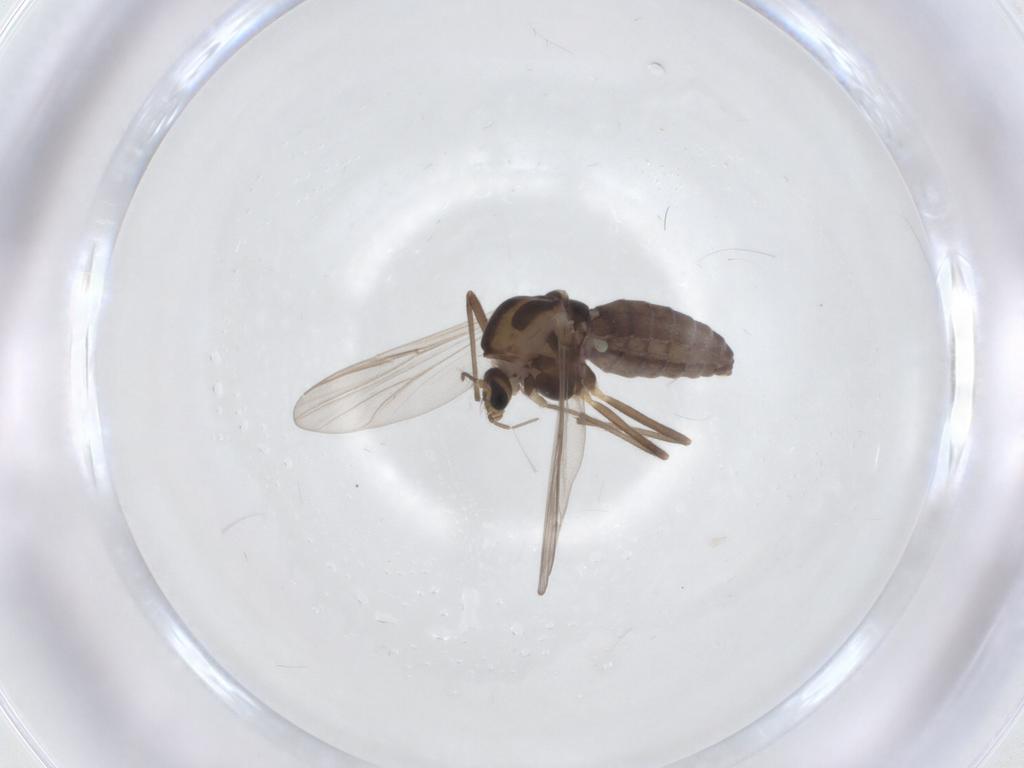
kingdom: Animalia
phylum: Arthropoda
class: Insecta
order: Diptera
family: Chironomidae
